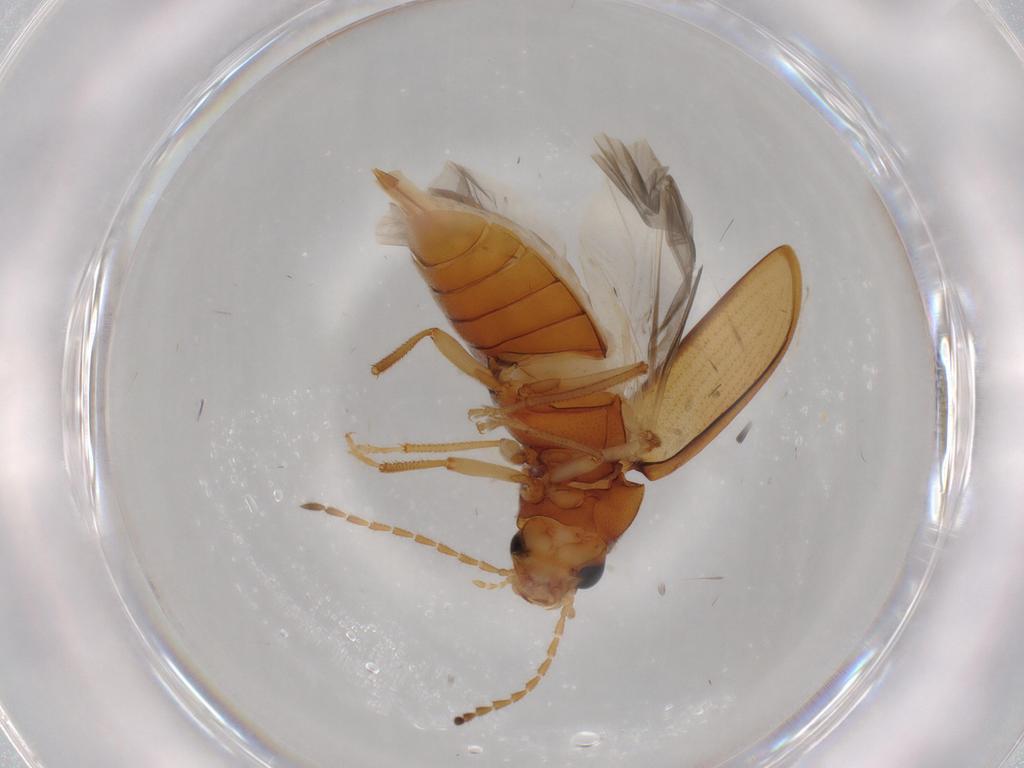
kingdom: Animalia
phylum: Arthropoda
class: Insecta
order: Coleoptera
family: Ptilodactylidae
